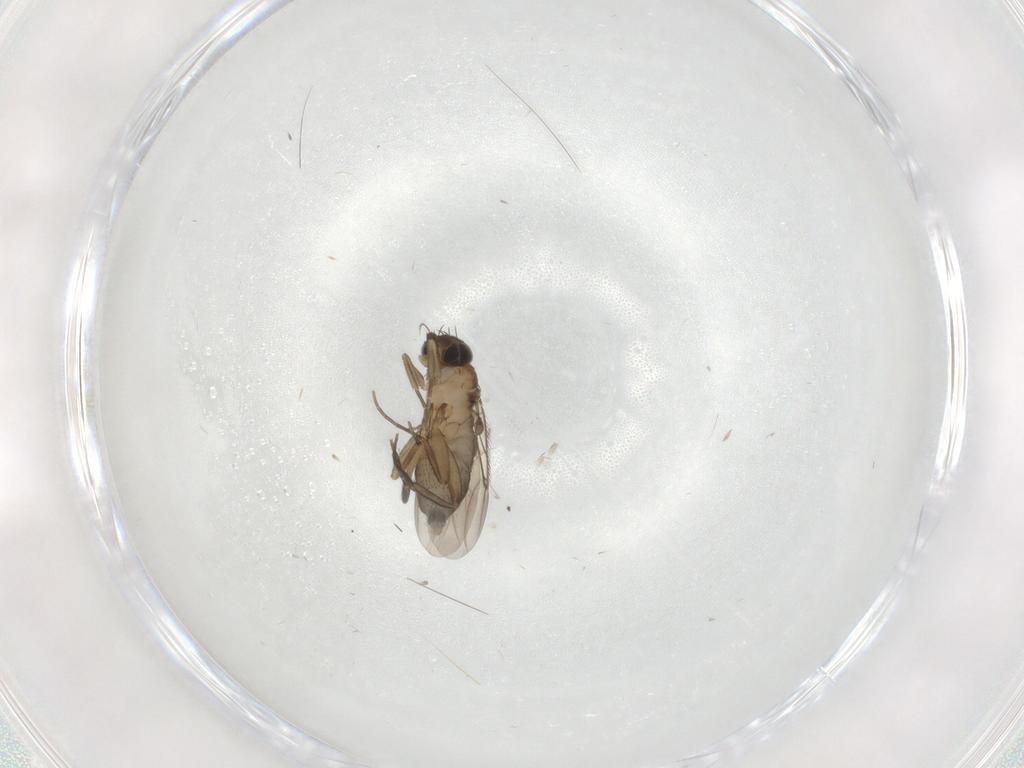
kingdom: Animalia
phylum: Arthropoda
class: Insecta
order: Diptera
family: Phoridae
